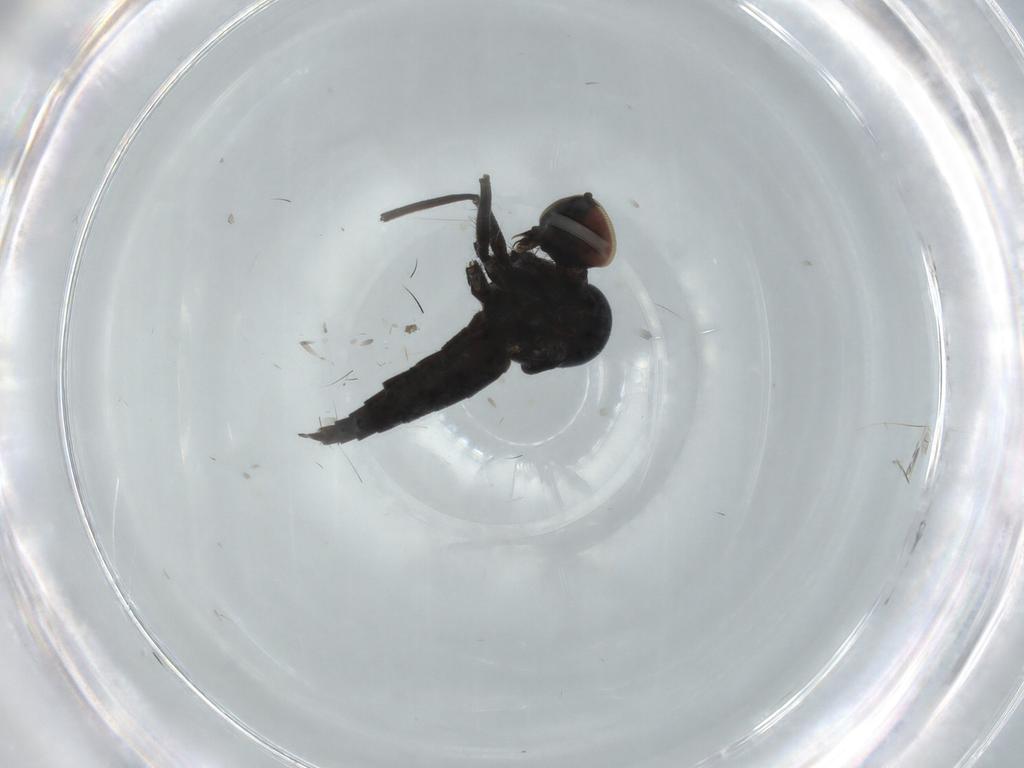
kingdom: Animalia
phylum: Arthropoda
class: Insecta
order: Diptera
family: Hybotidae
